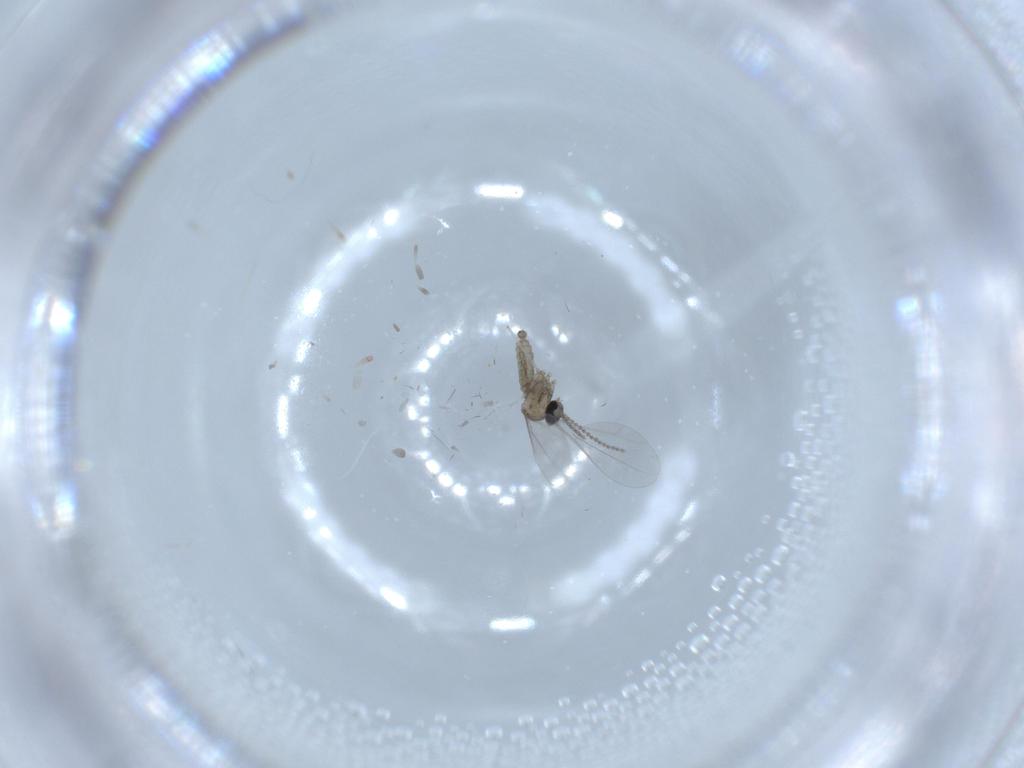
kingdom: Animalia
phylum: Arthropoda
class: Insecta
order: Diptera
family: Cecidomyiidae
